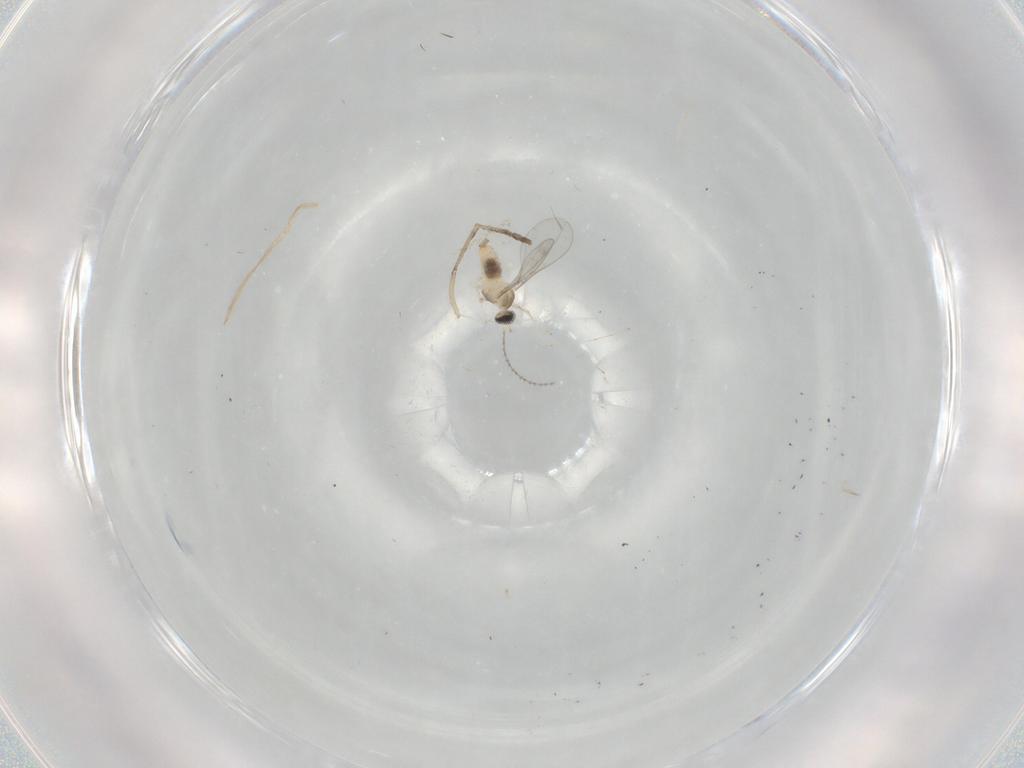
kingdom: Animalia
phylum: Arthropoda
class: Insecta
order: Diptera
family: Cecidomyiidae
